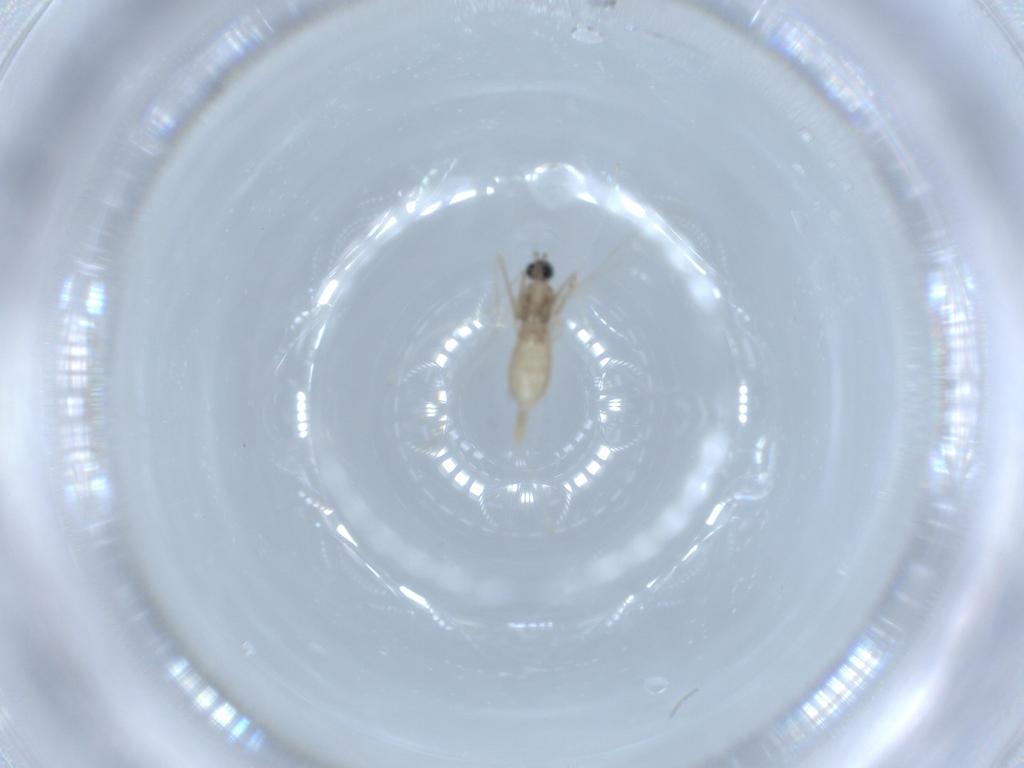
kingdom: Animalia
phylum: Arthropoda
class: Insecta
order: Diptera
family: Cecidomyiidae
